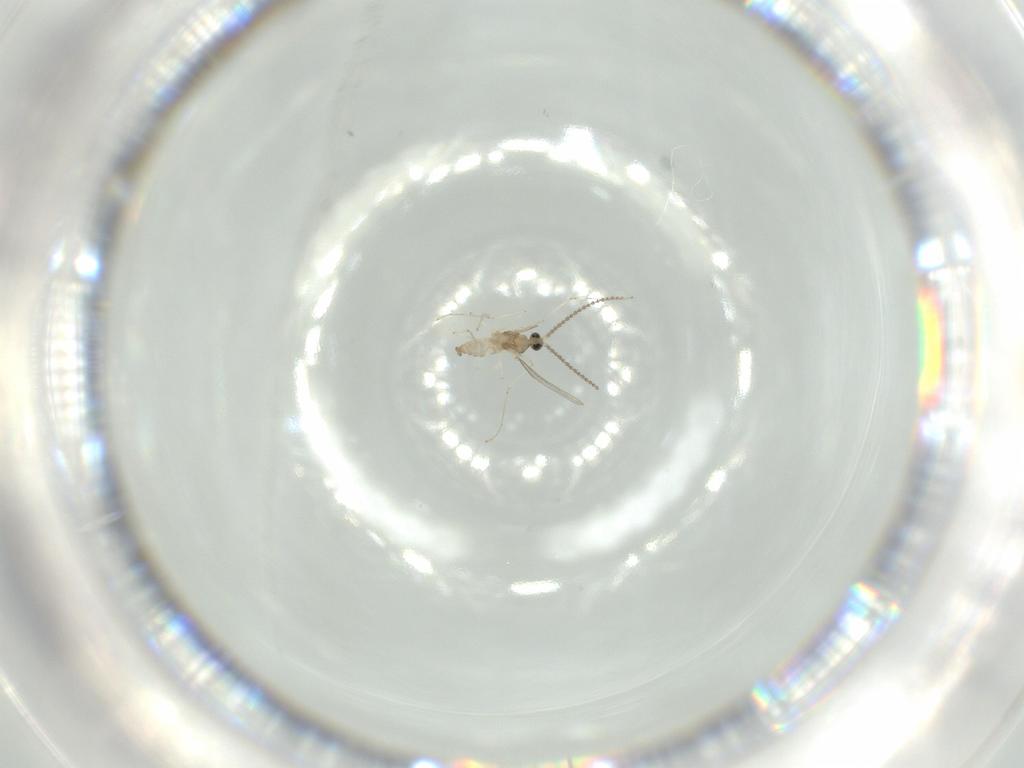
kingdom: Animalia
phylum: Arthropoda
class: Insecta
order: Diptera
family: Cecidomyiidae
